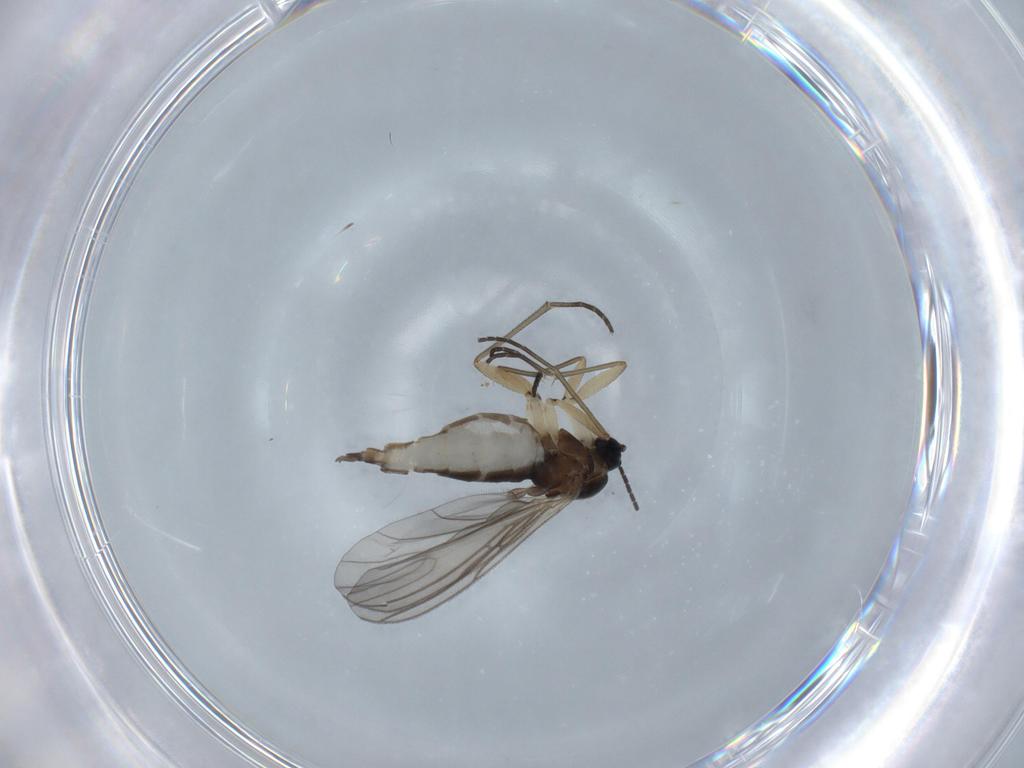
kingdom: Animalia
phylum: Arthropoda
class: Insecta
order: Diptera
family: Sciaridae
